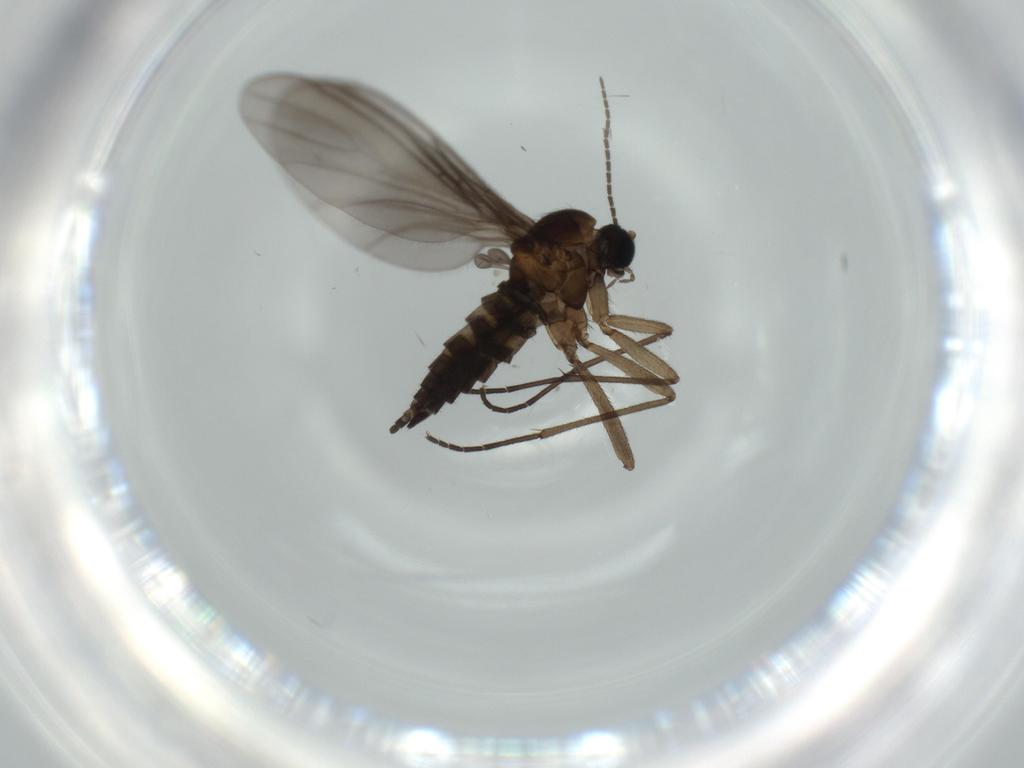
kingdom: Animalia
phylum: Arthropoda
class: Insecta
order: Diptera
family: Sciaridae
